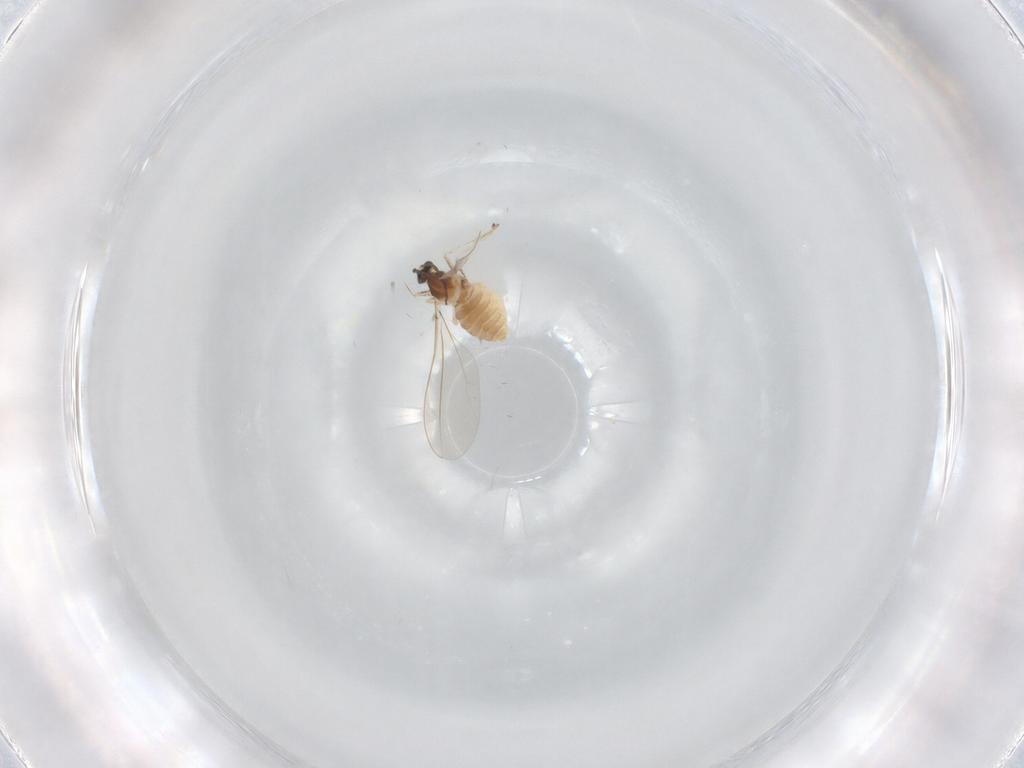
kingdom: Animalia
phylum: Arthropoda
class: Insecta
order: Diptera
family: Cecidomyiidae
